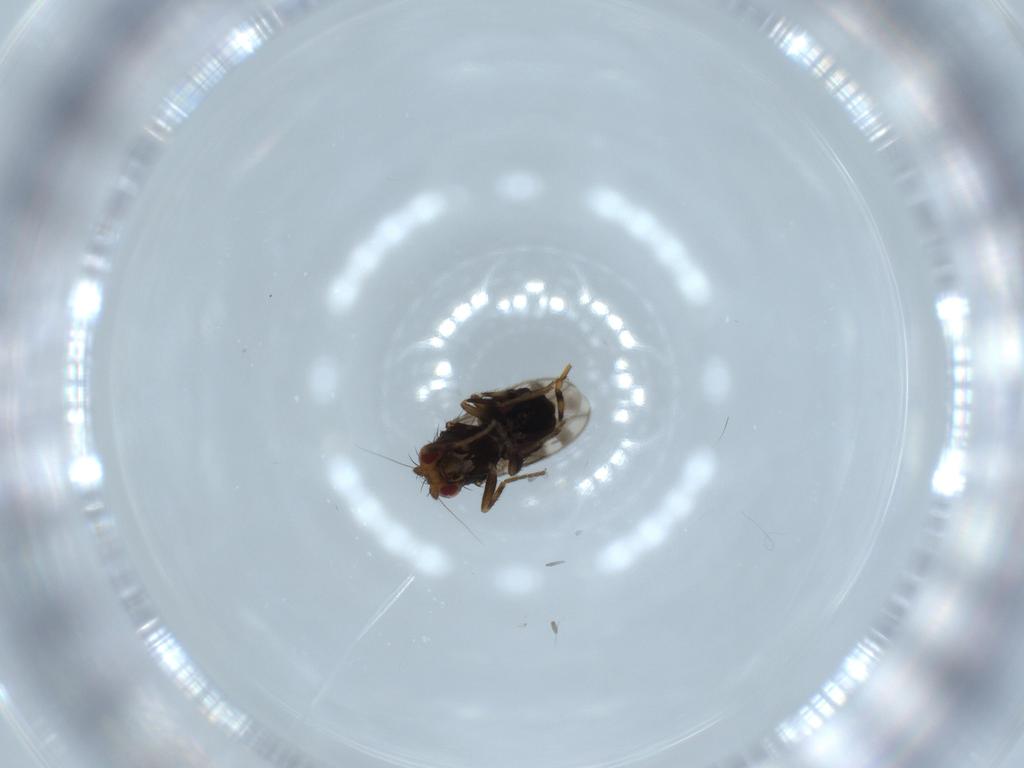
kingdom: Animalia
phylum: Arthropoda
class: Insecta
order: Diptera
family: Sphaeroceridae
